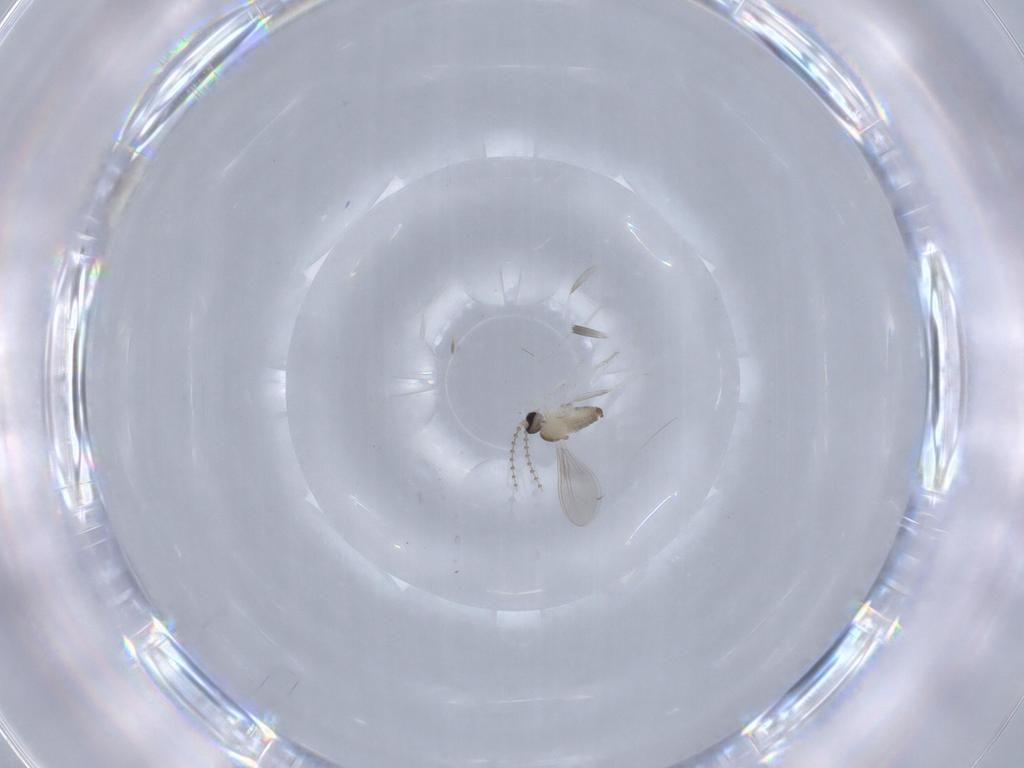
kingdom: Animalia
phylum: Arthropoda
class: Insecta
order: Diptera
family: Cecidomyiidae
